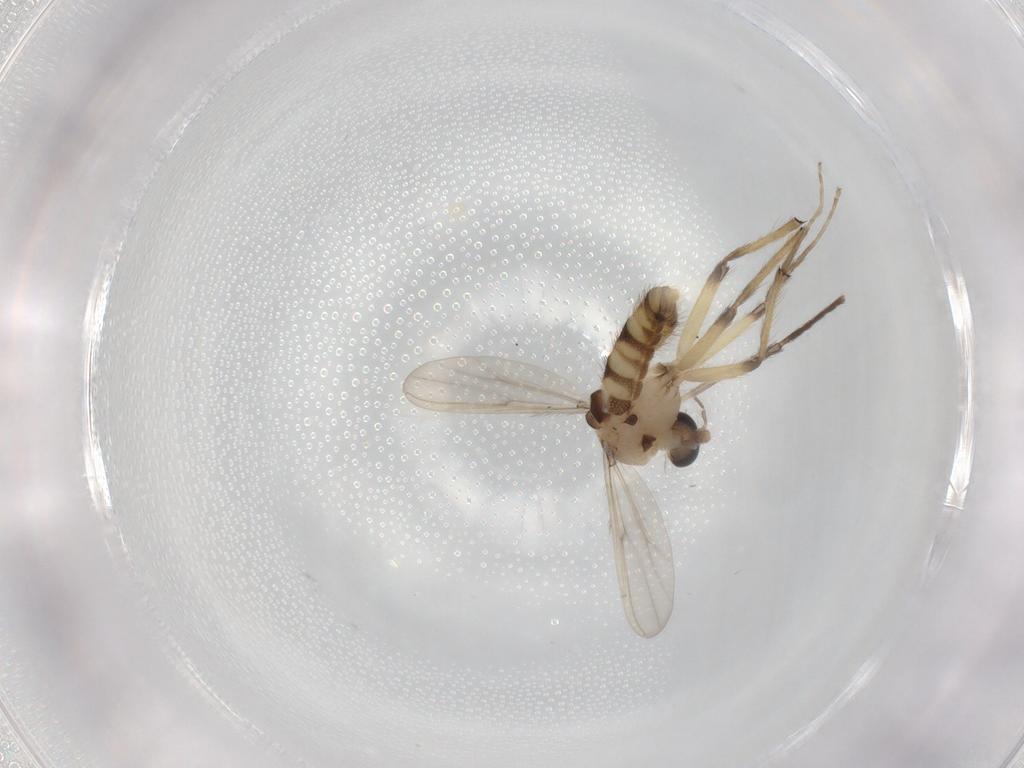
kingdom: Animalia
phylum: Arthropoda
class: Insecta
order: Diptera
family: Chironomidae
